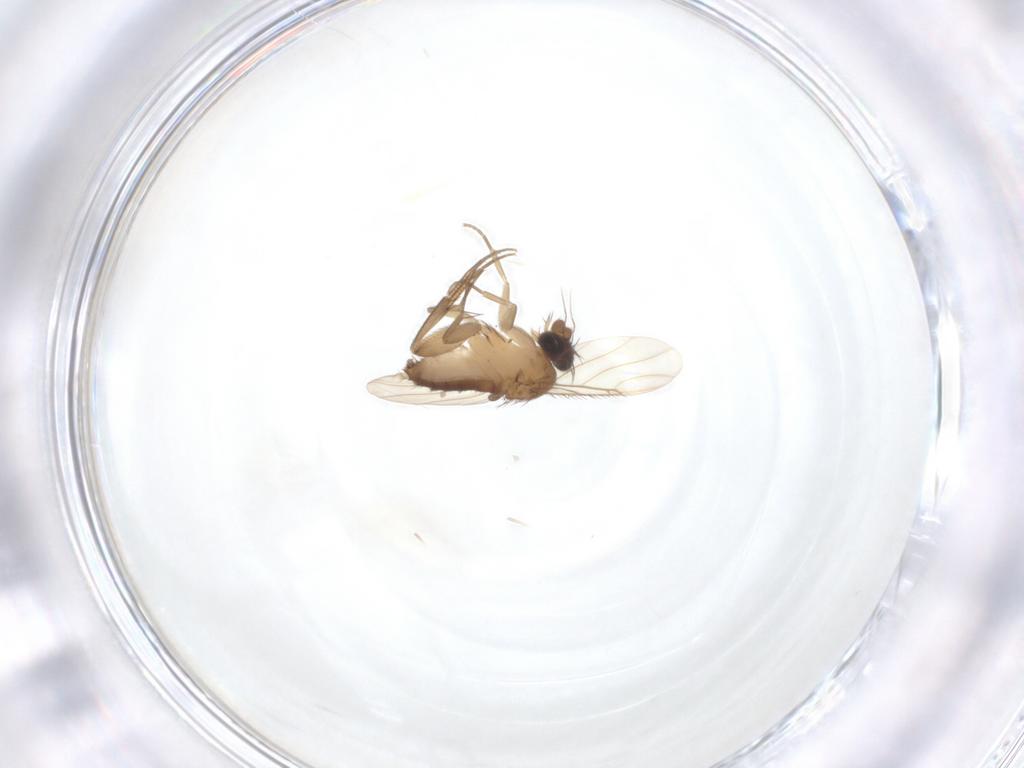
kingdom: Animalia
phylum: Arthropoda
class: Insecta
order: Diptera
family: Phoridae
